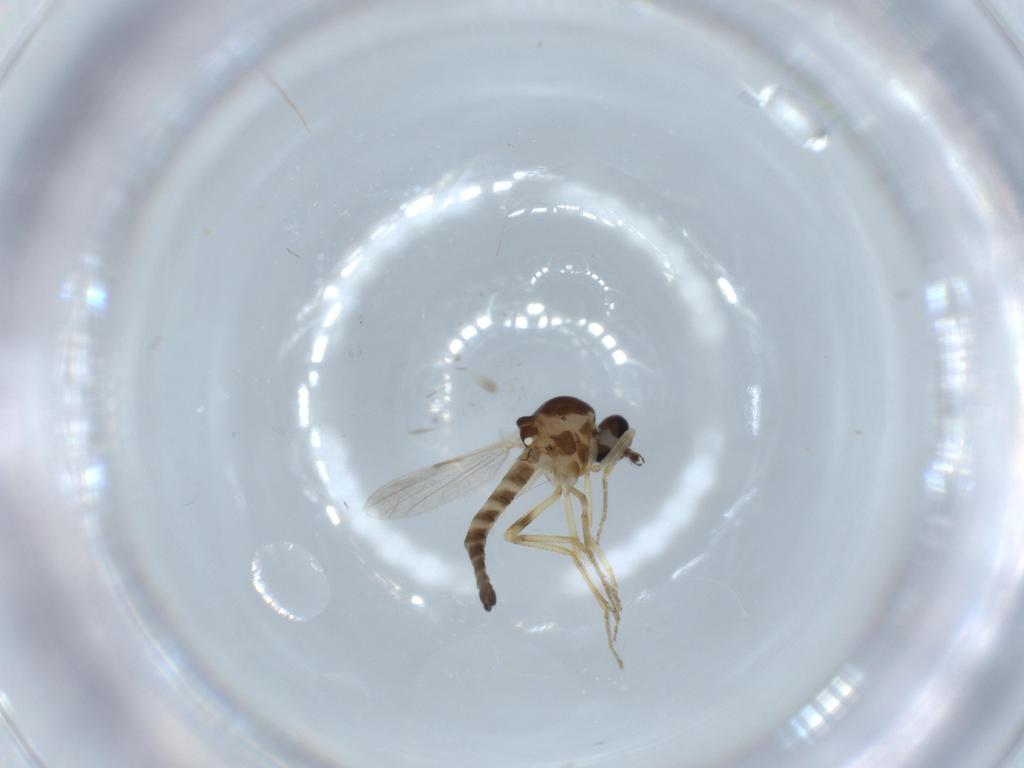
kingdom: Animalia
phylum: Arthropoda
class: Insecta
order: Diptera
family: Ceratopogonidae
